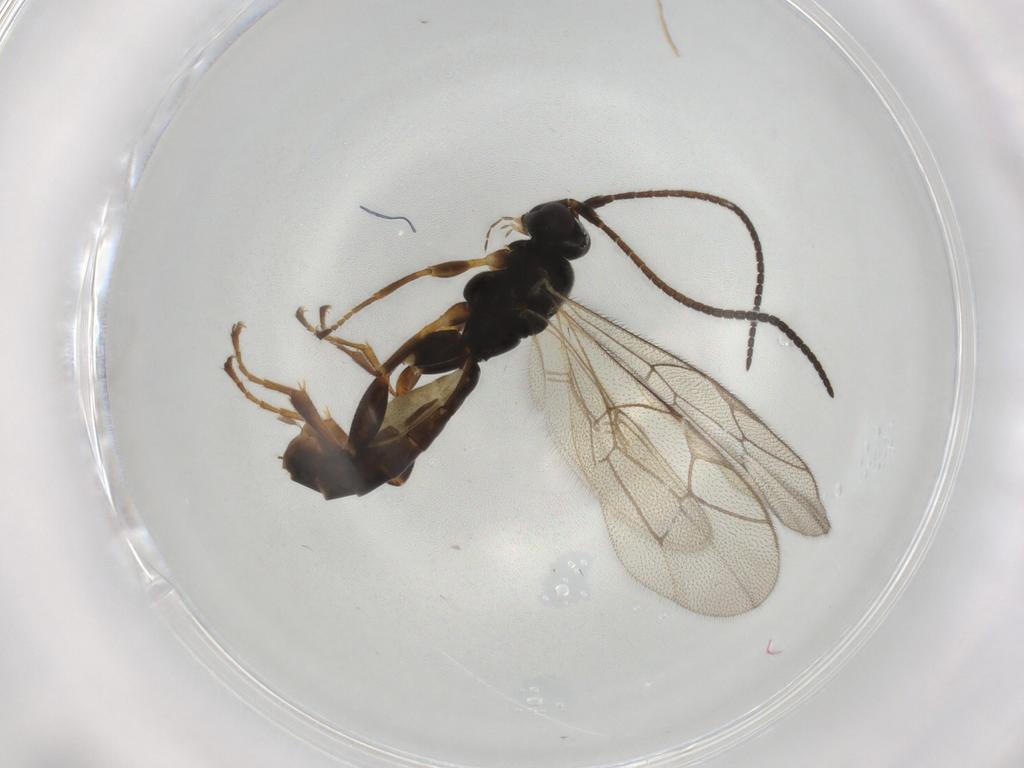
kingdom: Animalia
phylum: Arthropoda
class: Insecta
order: Hymenoptera
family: Ichneumonidae
